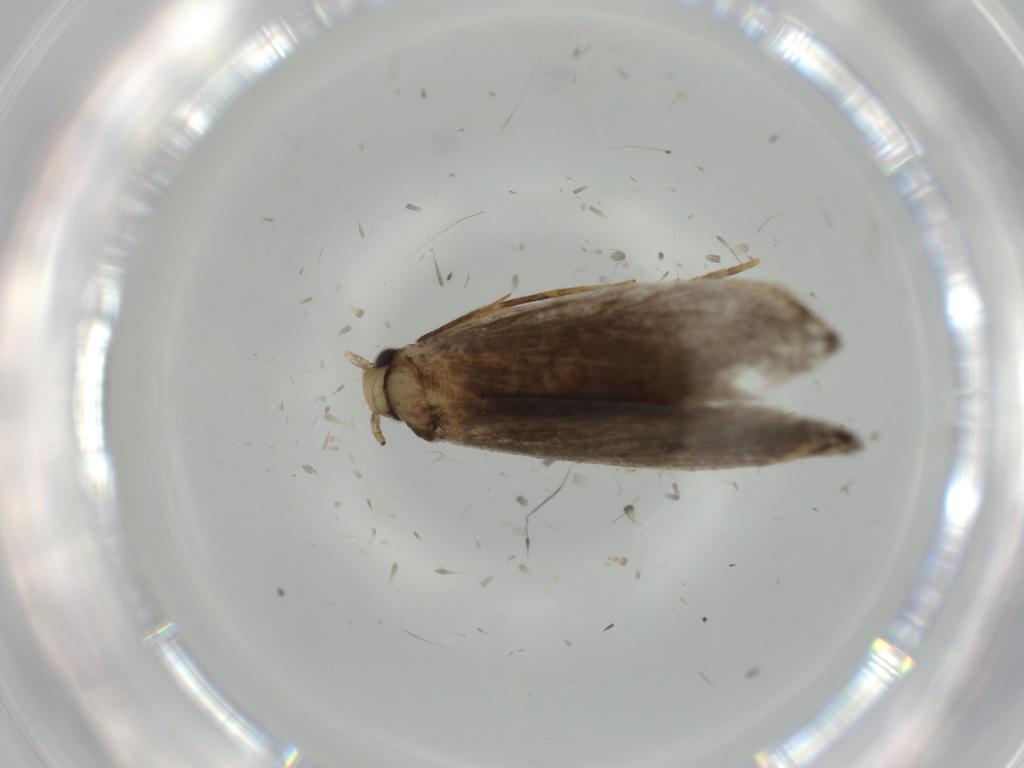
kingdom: Animalia
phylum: Arthropoda
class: Insecta
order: Lepidoptera
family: Tineidae
